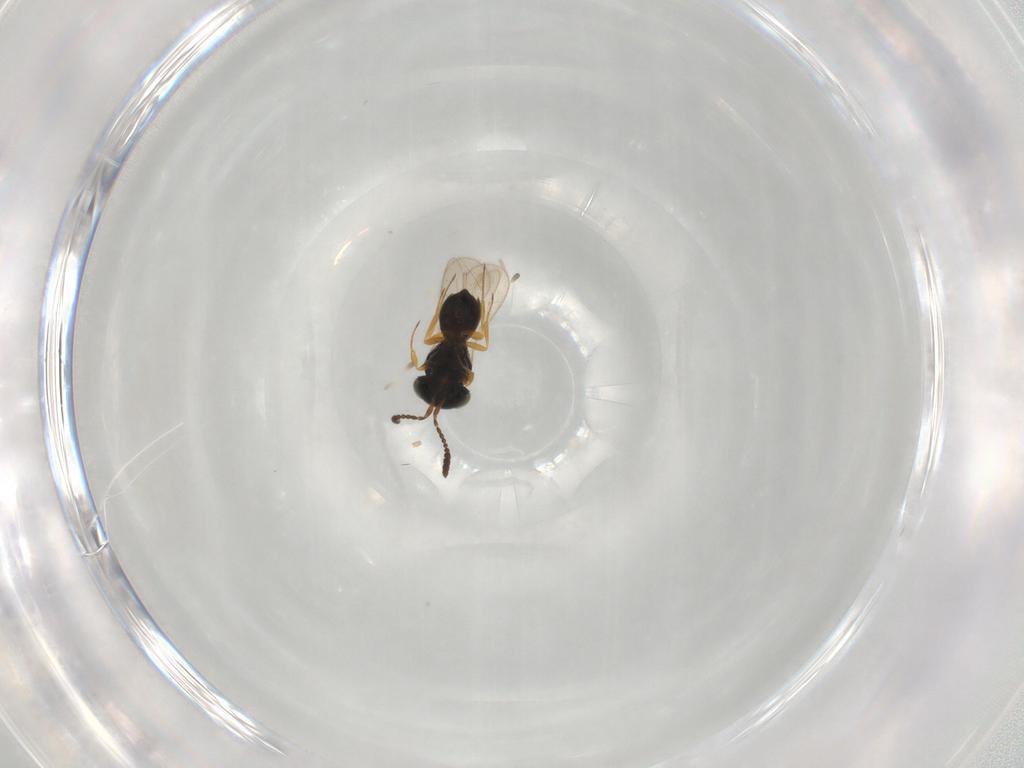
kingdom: Animalia
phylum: Arthropoda
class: Insecta
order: Hymenoptera
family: Scelionidae
